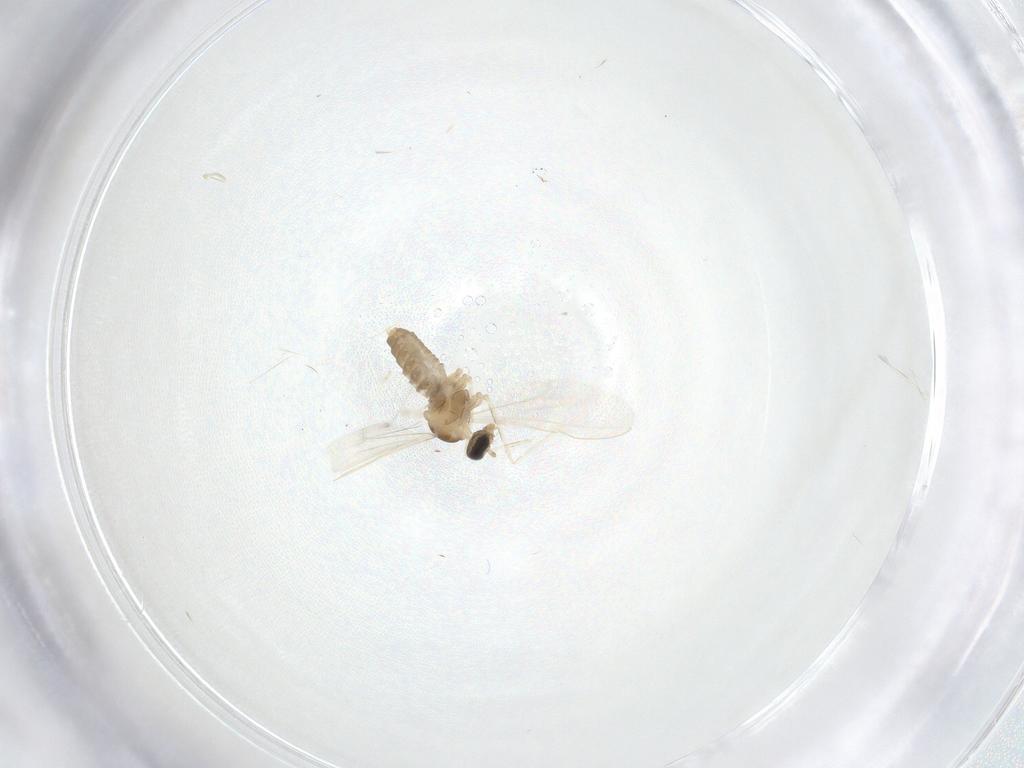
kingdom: Animalia
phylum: Arthropoda
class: Insecta
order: Diptera
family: Cecidomyiidae
